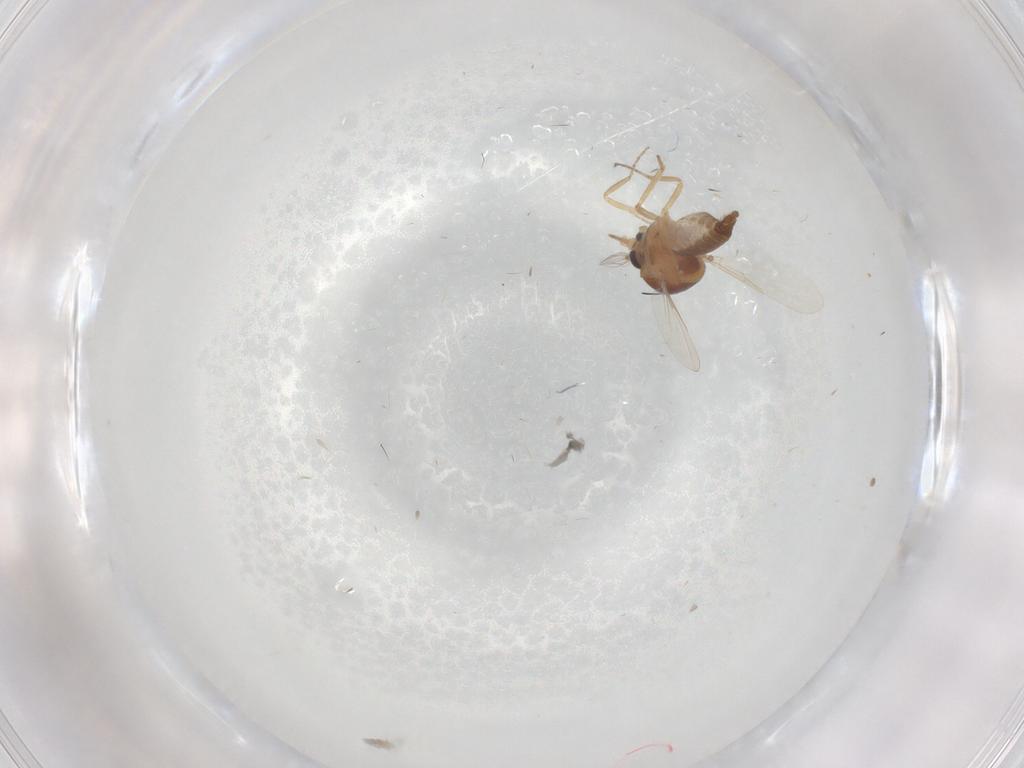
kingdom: Animalia
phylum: Arthropoda
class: Insecta
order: Diptera
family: Ceratopogonidae
